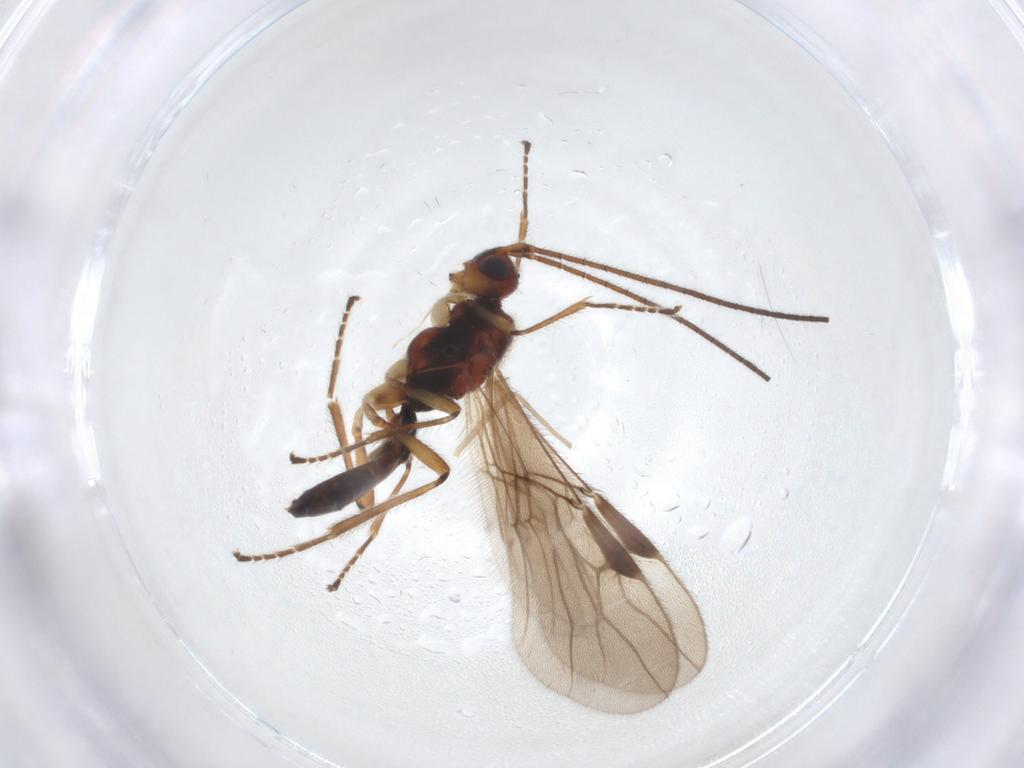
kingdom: Animalia
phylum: Arthropoda
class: Insecta
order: Hymenoptera
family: Braconidae
